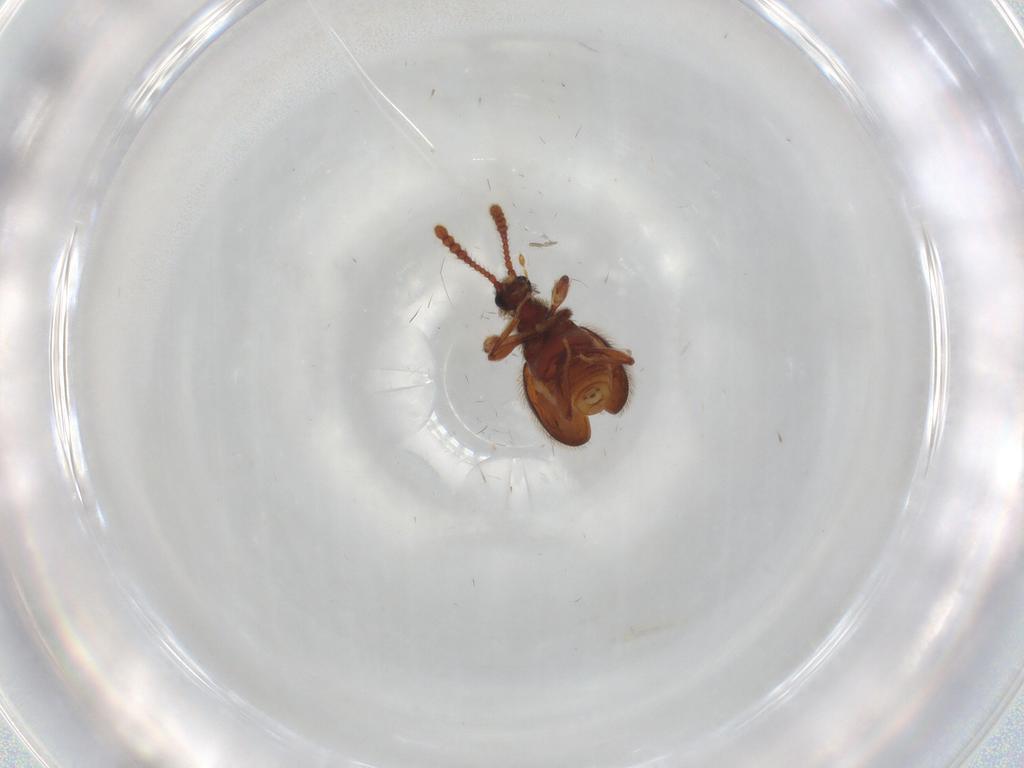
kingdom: Animalia
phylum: Arthropoda
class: Insecta
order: Coleoptera
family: Staphylinidae
